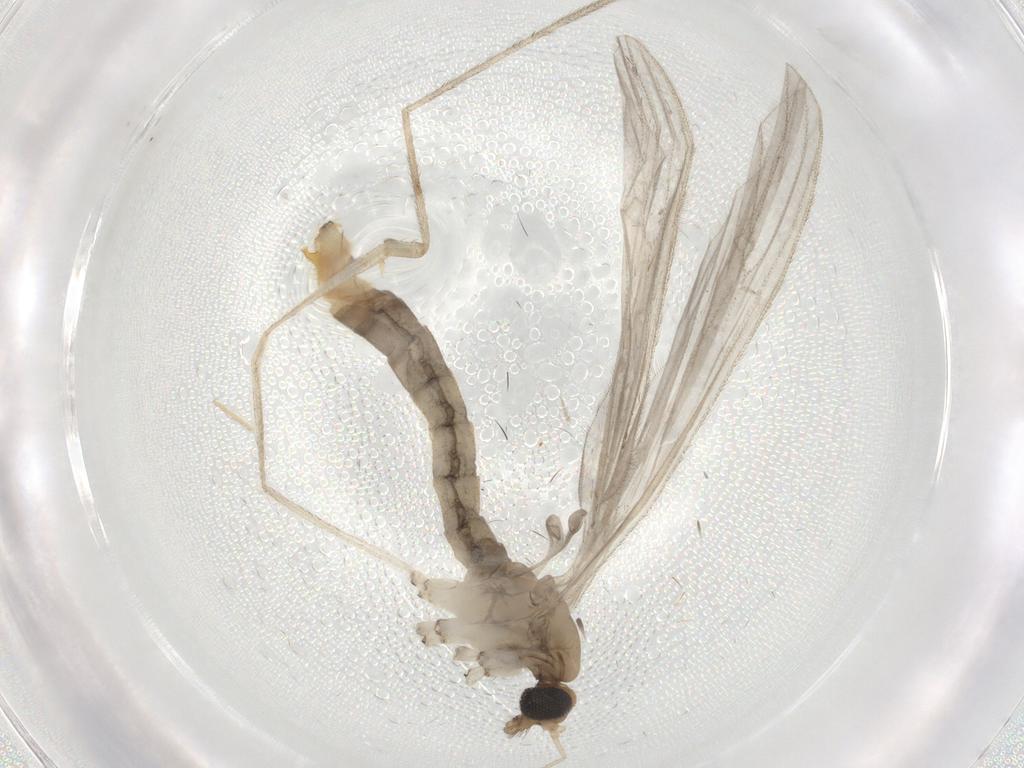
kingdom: Animalia
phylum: Arthropoda
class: Insecta
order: Diptera
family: Limoniidae
